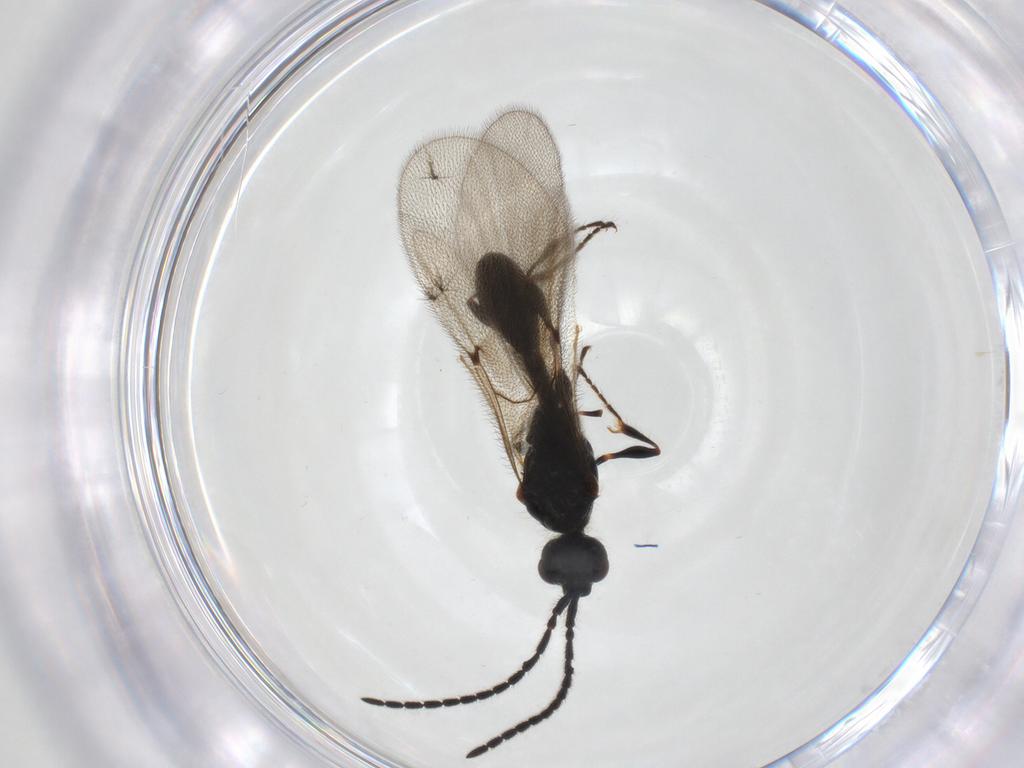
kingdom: Animalia
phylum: Arthropoda
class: Insecta
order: Hymenoptera
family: Diapriidae
